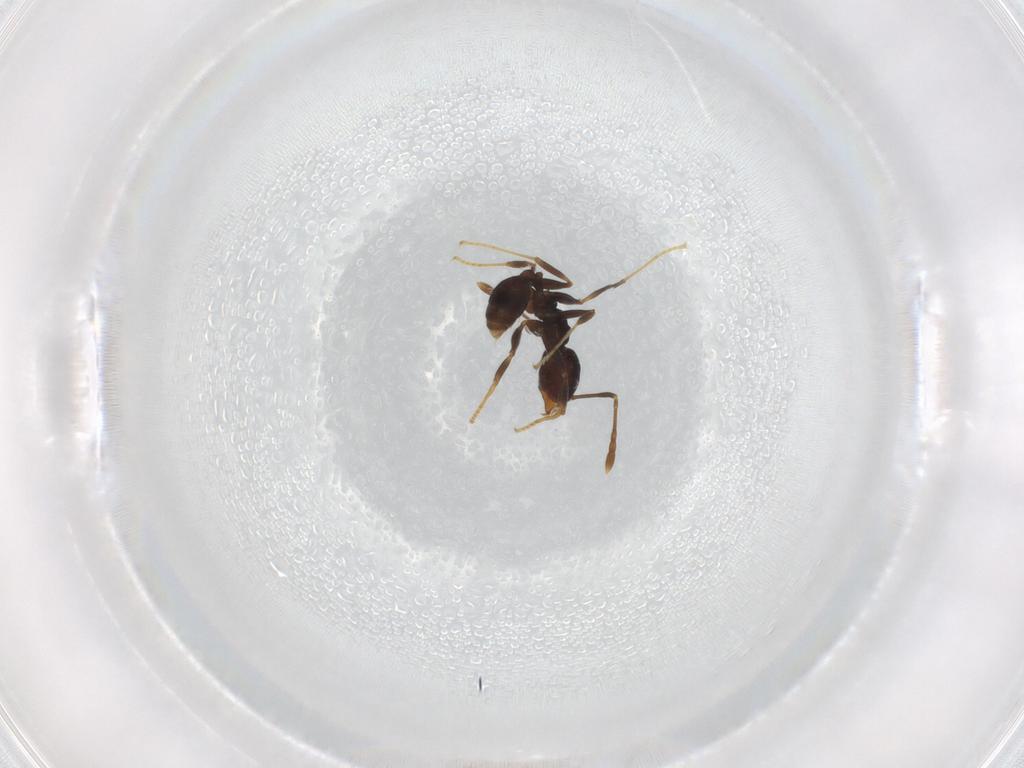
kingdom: Animalia
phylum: Arthropoda
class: Insecta
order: Hymenoptera
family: Formicidae
